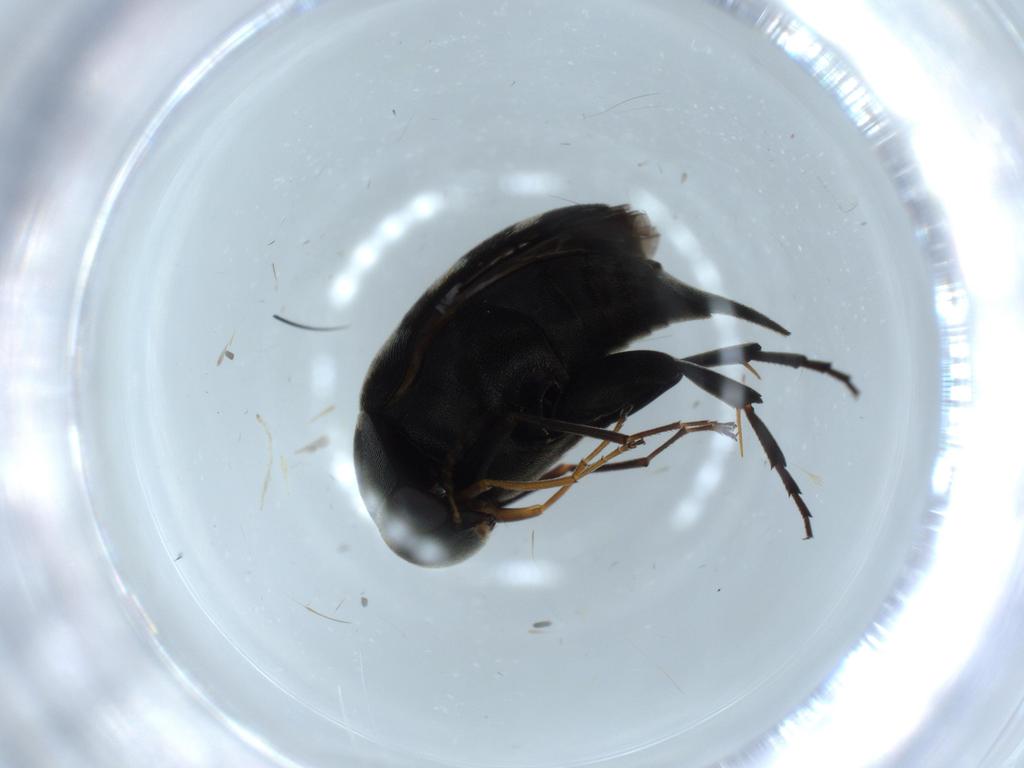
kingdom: Animalia
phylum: Arthropoda
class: Insecta
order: Coleoptera
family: Mordellidae
